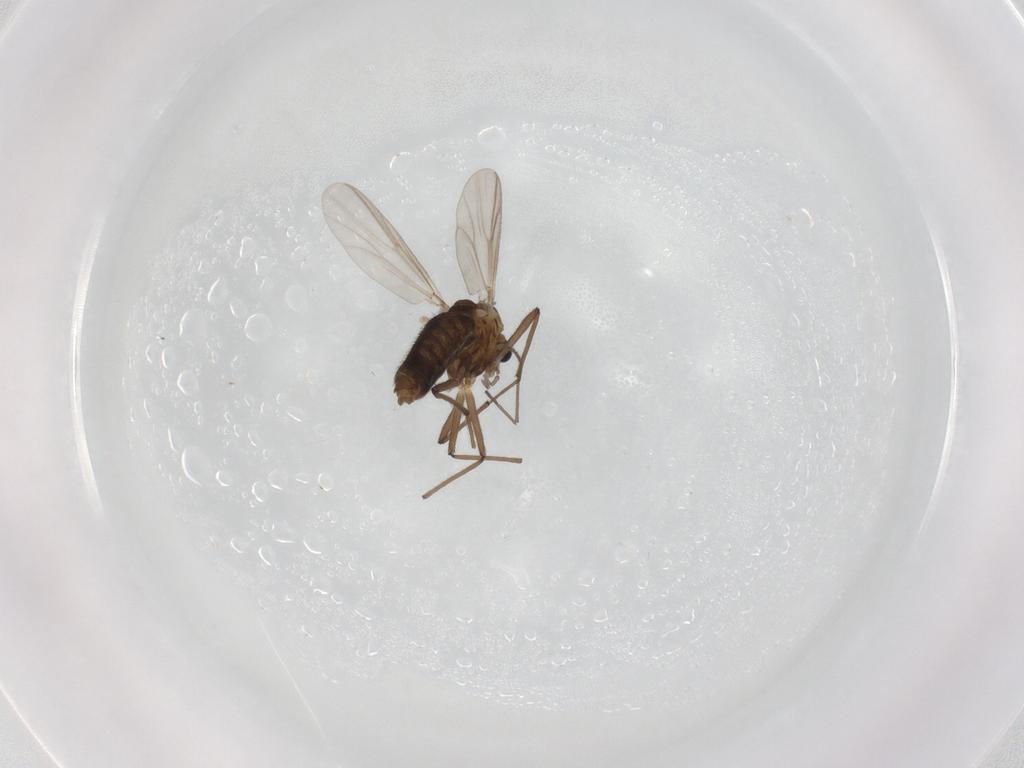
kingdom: Animalia
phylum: Arthropoda
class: Insecta
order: Diptera
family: Chironomidae
